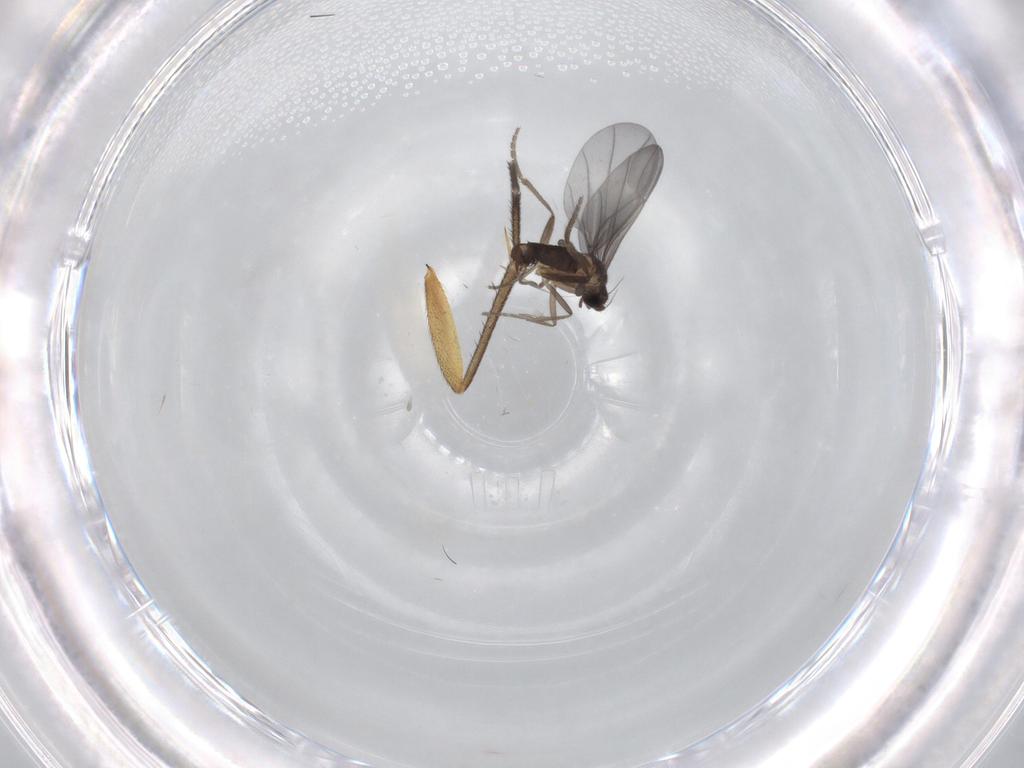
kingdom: Animalia
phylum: Arthropoda
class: Insecta
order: Diptera
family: Phoridae
